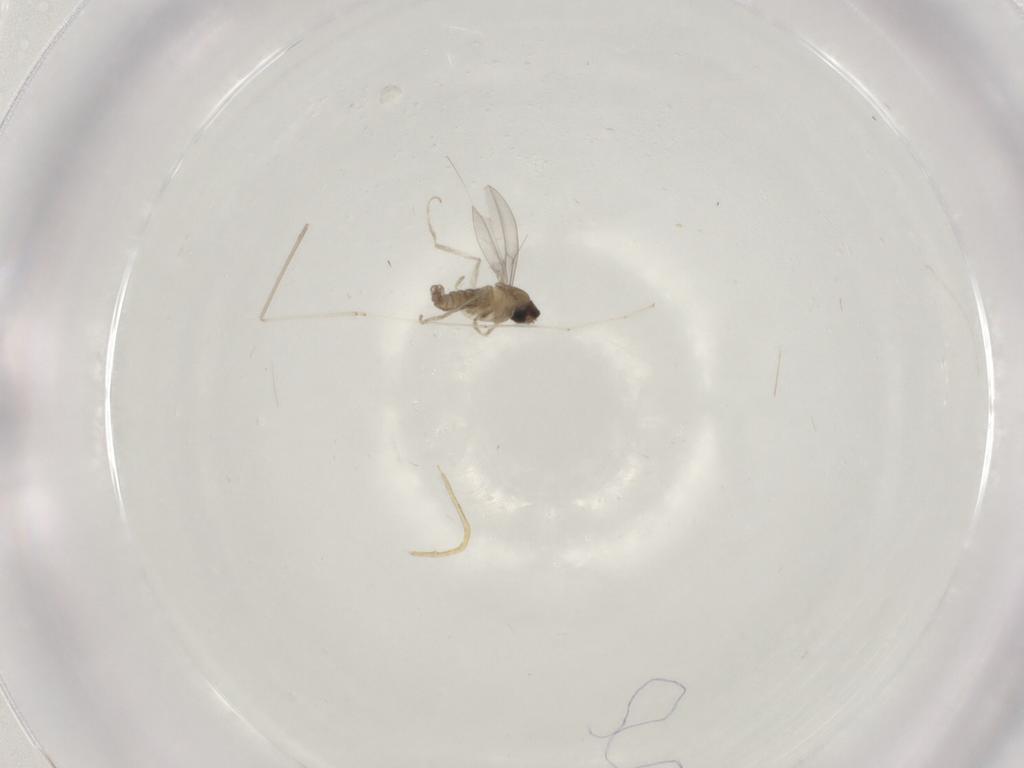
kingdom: Animalia
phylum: Arthropoda
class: Insecta
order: Diptera
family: Cecidomyiidae
